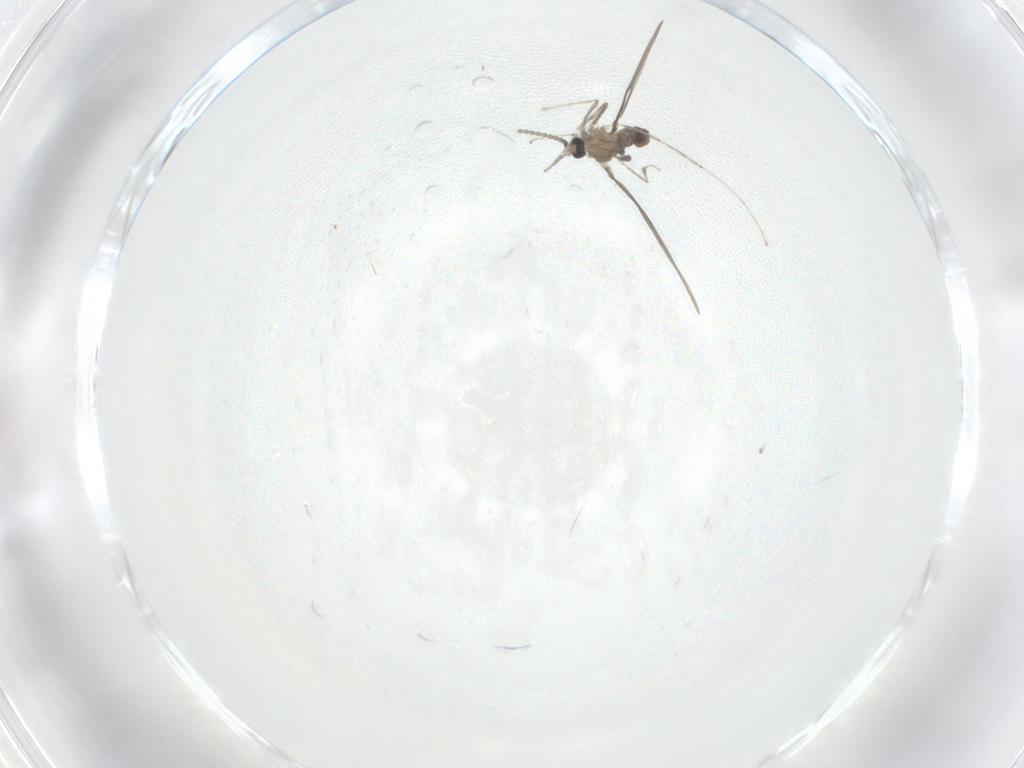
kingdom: Animalia
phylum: Arthropoda
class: Insecta
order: Diptera
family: Cecidomyiidae
